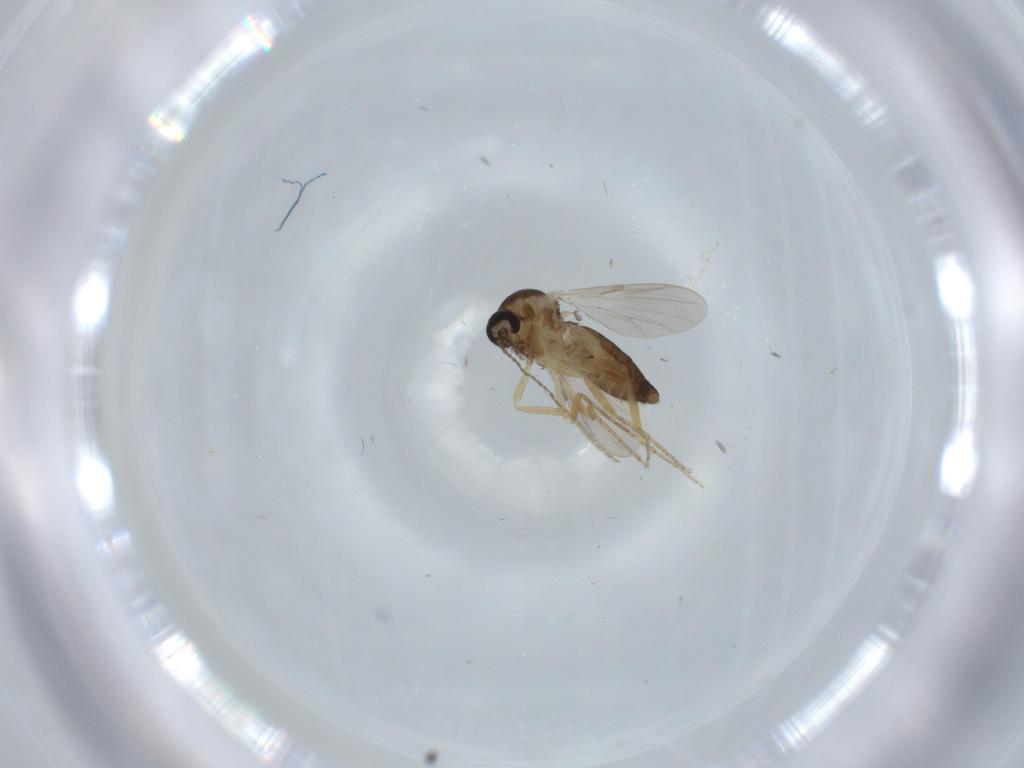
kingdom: Animalia
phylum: Arthropoda
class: Insecta
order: Diptera
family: Ceratopogonidae
